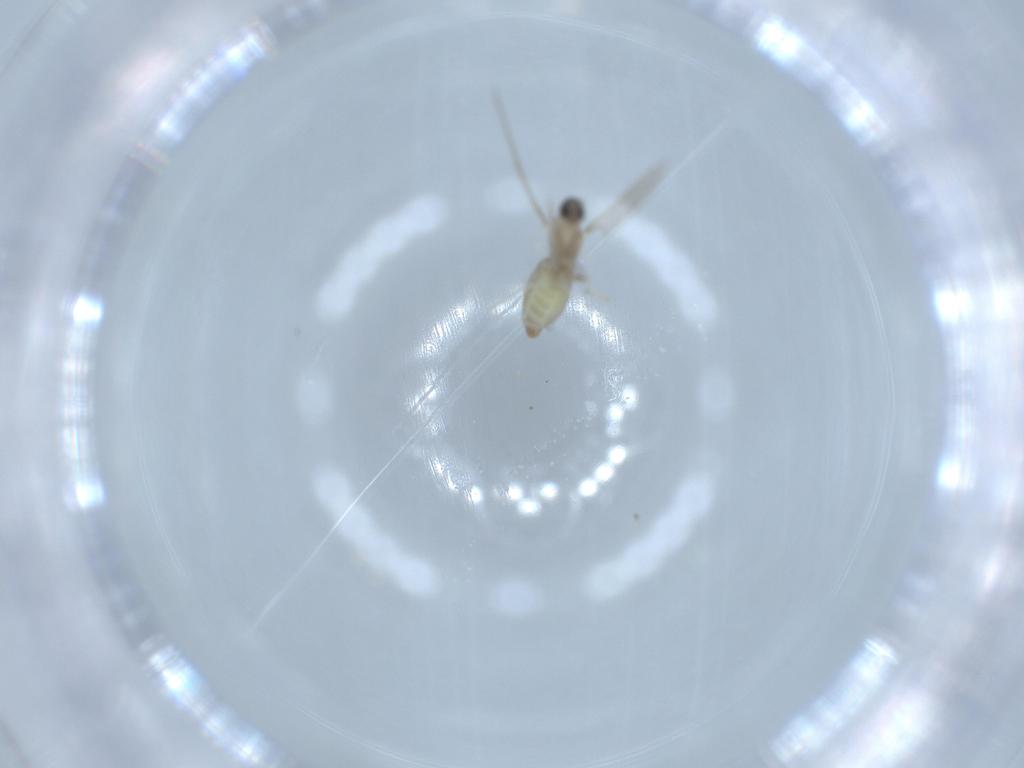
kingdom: Animalia
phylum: Arthropoda
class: Insecta
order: Diptera
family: Cecidomyiidae
